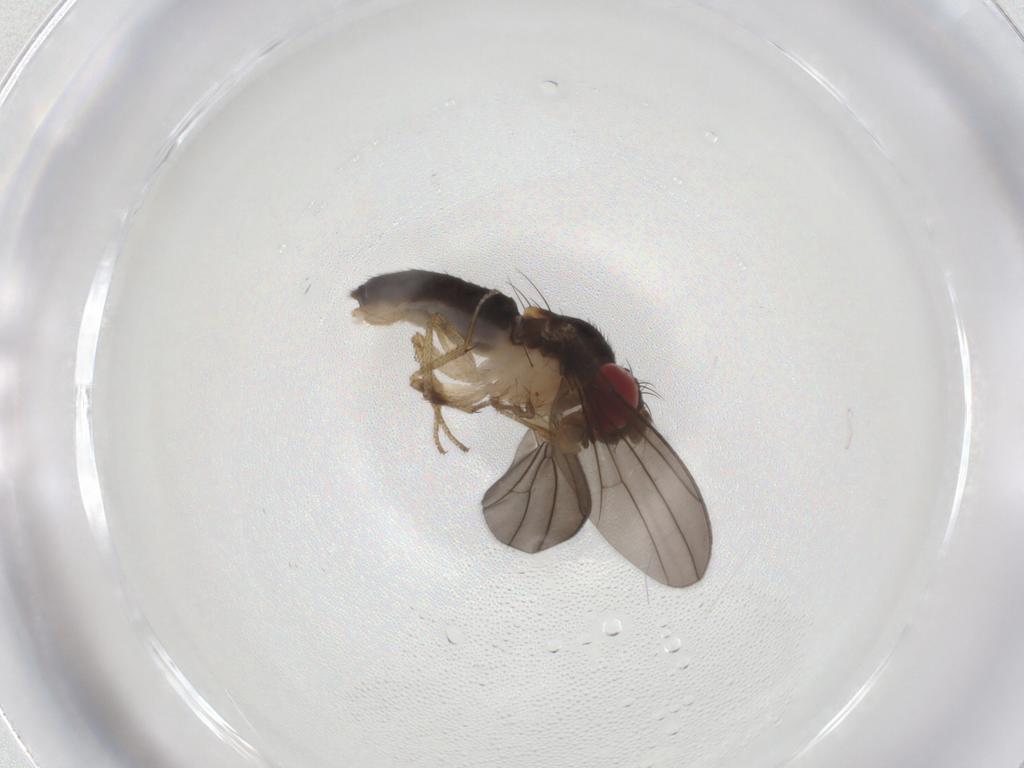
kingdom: Animalia
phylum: Arthropoda
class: Insecta
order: Diptera
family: Drosophilidae
